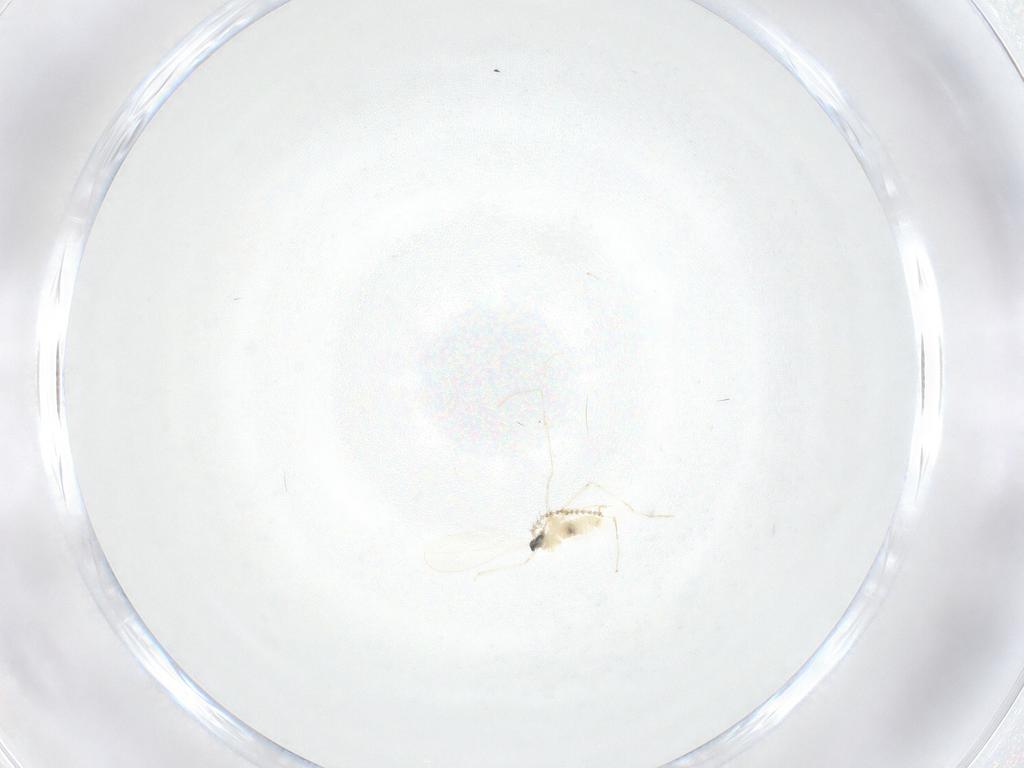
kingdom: Animalia
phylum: Arthropoda
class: Insecta
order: Diptera
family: Cecidomyiidae
